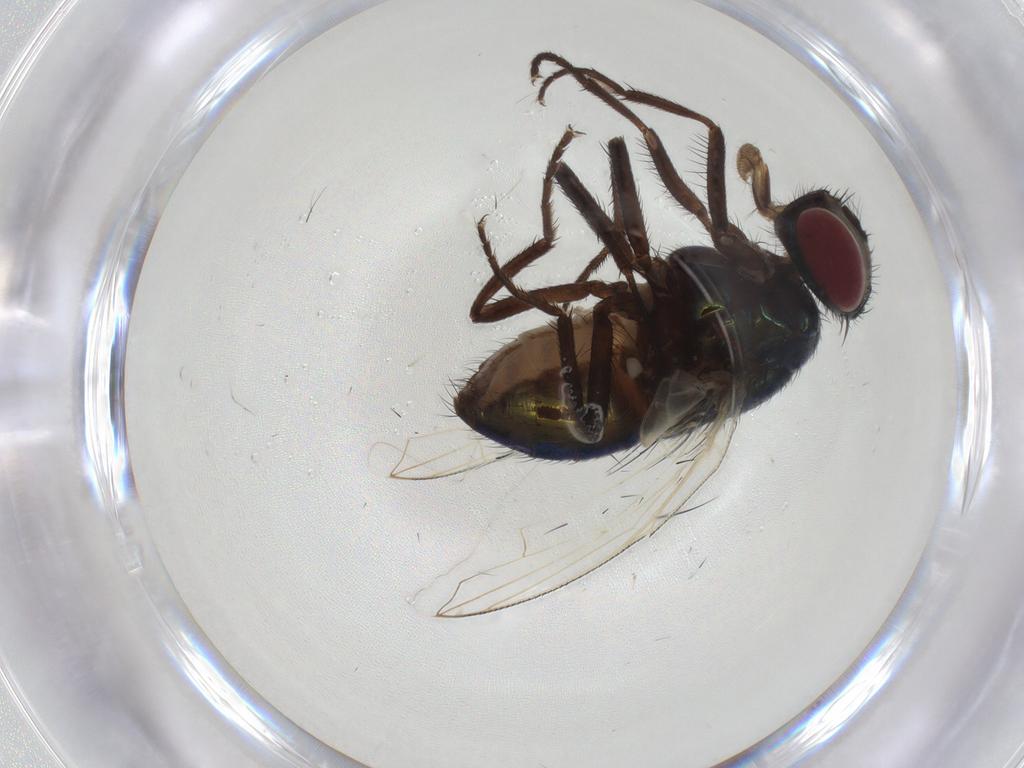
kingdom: Animalia
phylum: Arthropoda
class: Insecta
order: Diptera
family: Muscidae
